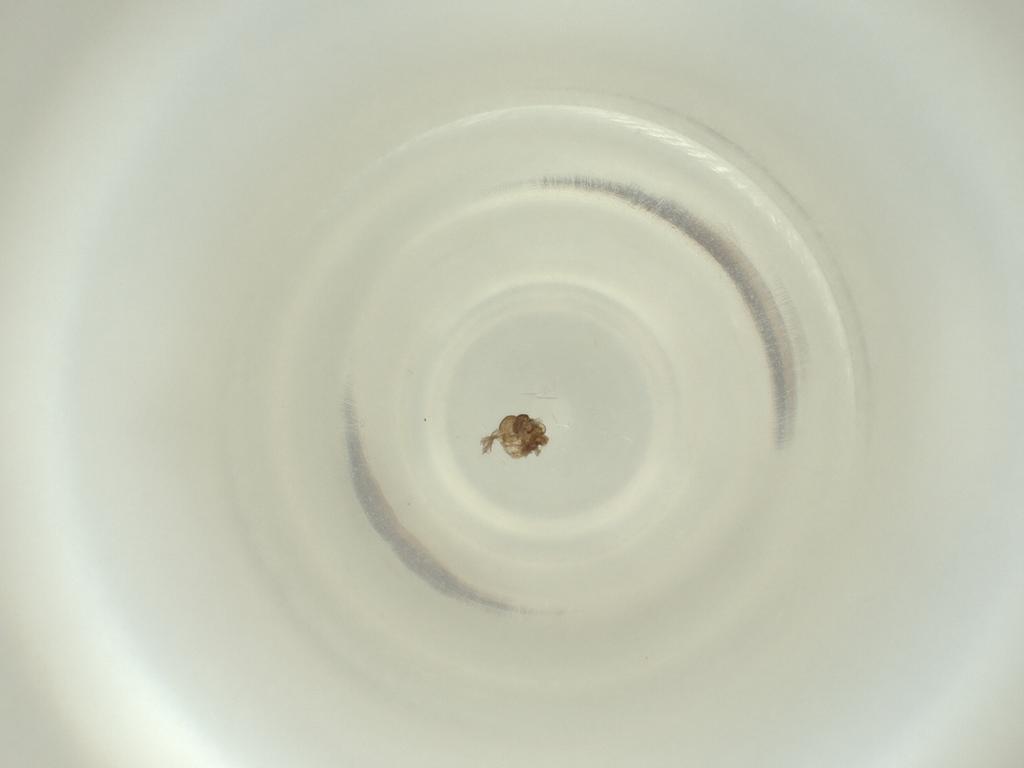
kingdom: Animalia
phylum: Arthropoda
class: Insecta
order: Diptera
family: Cecidomyiidae
